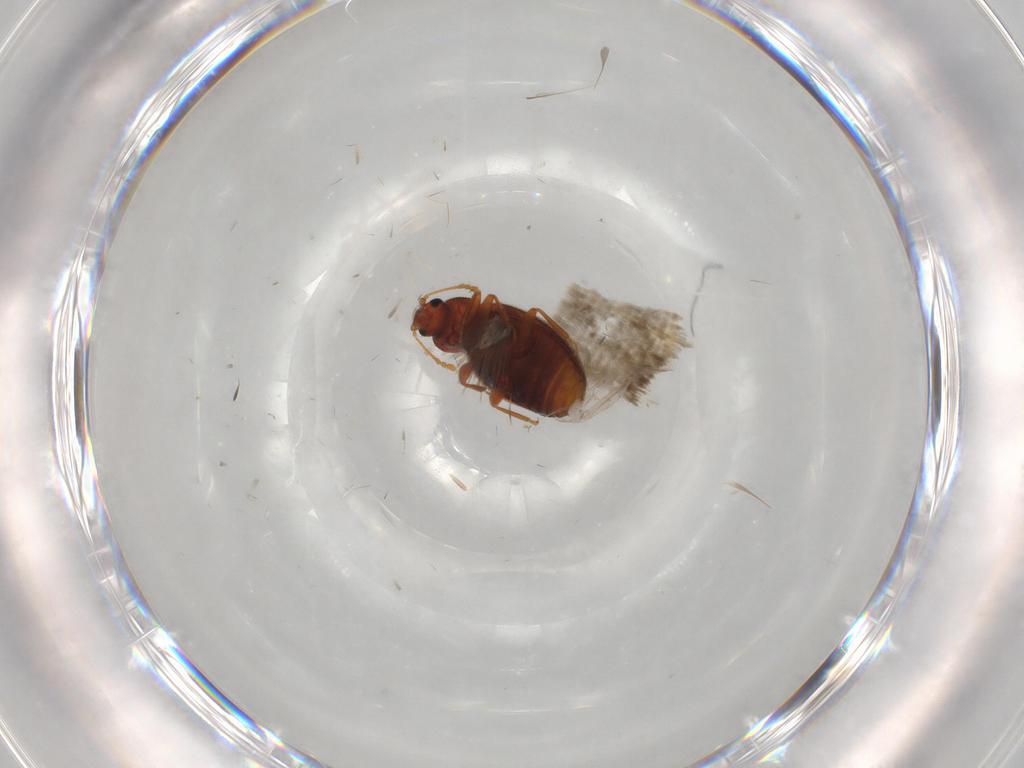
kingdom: Animalia
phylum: Arthropoda
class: Insecta
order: Coleoptera
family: Latridiidae
